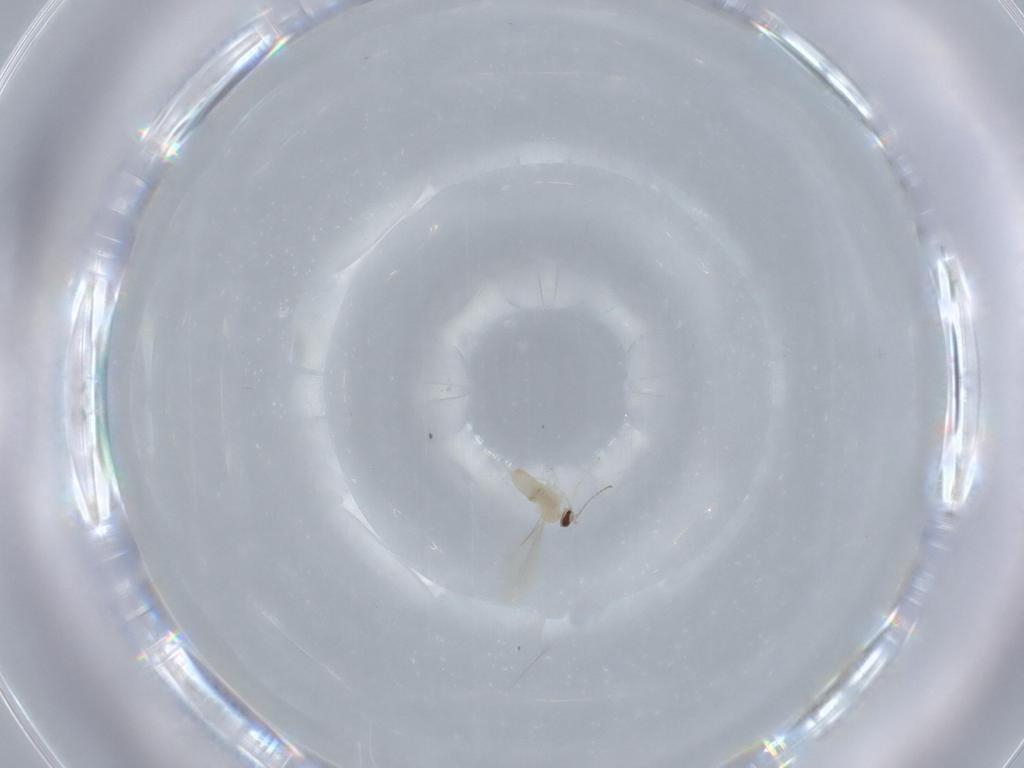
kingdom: Animalia
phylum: Arthropoda
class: Insecta
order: Diptera
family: Cecidomyiidae
